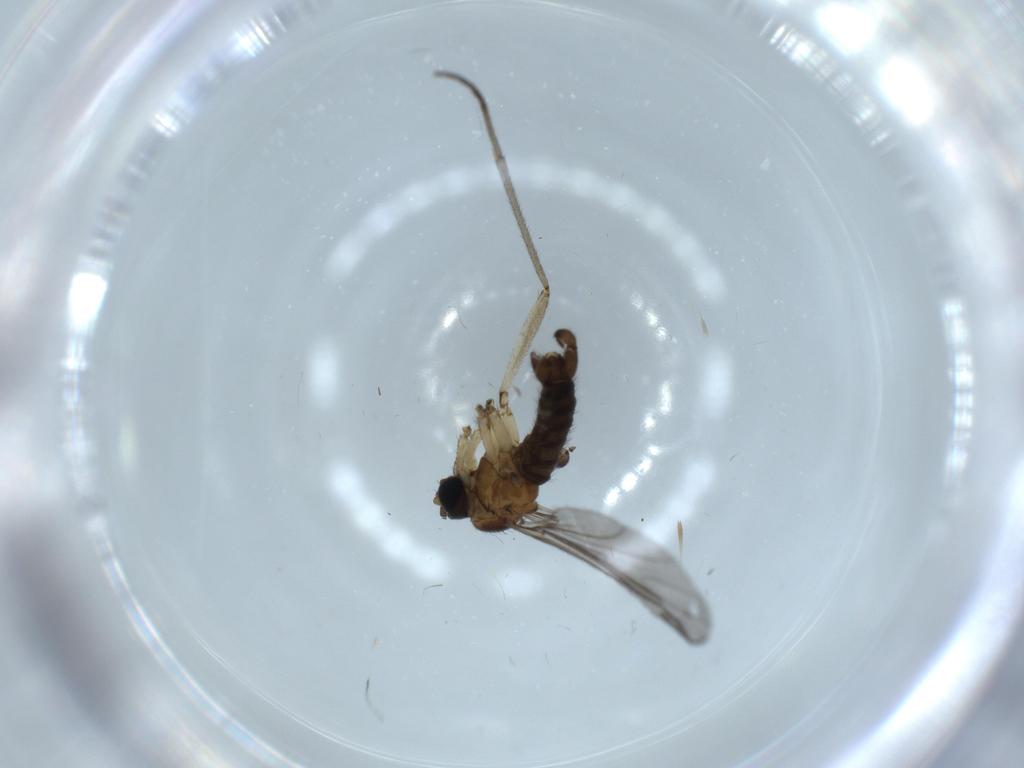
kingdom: Animalia
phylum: Arthropoda
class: Insecta
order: Diptera
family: Sciaridae
